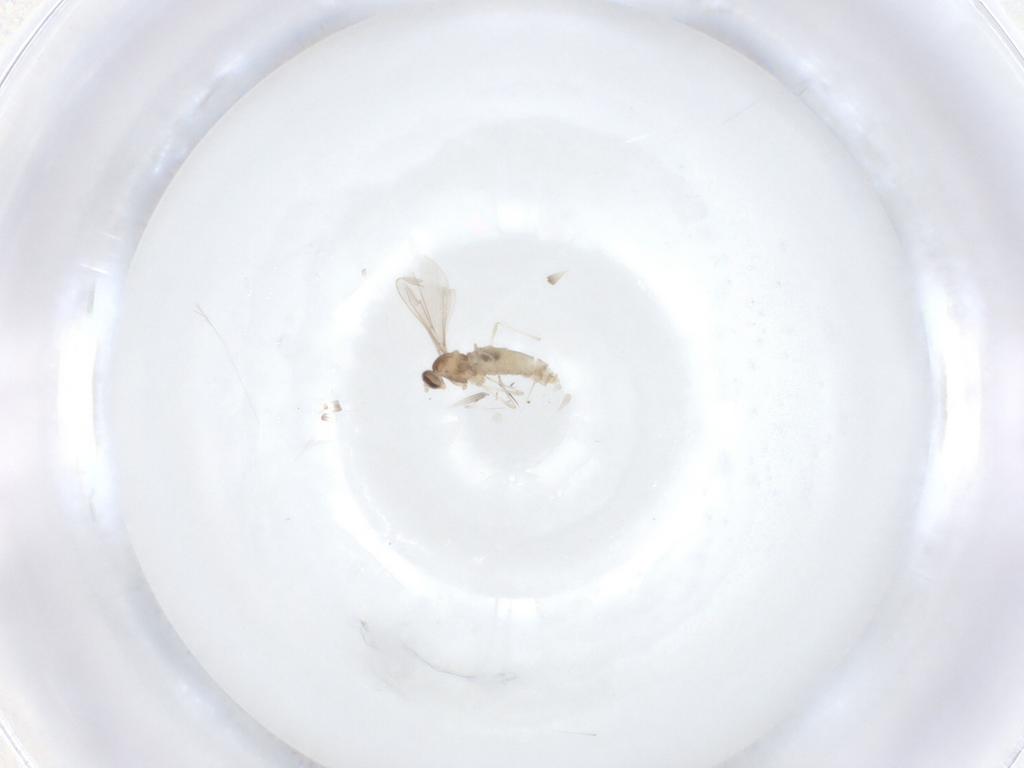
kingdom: Animalia
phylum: Arthropoda
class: Insecta
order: Diptera
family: Cecidomyiidae
